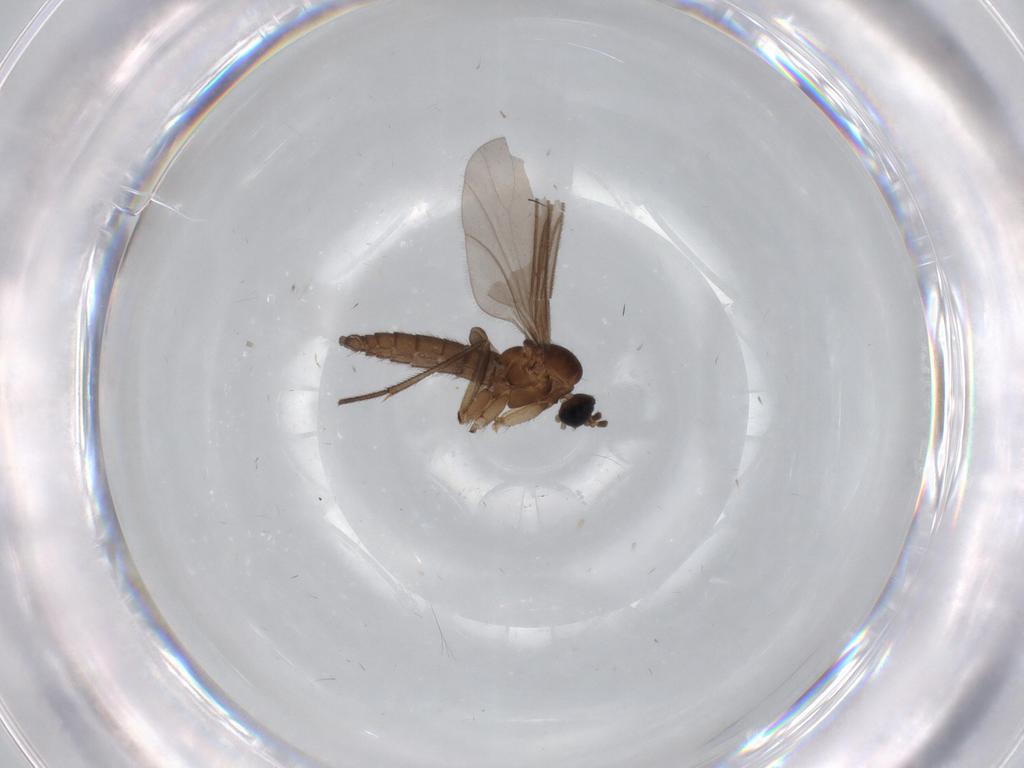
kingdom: Animalia
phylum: Arthropoda
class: Insecta
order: Diptera
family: Sciaridae
